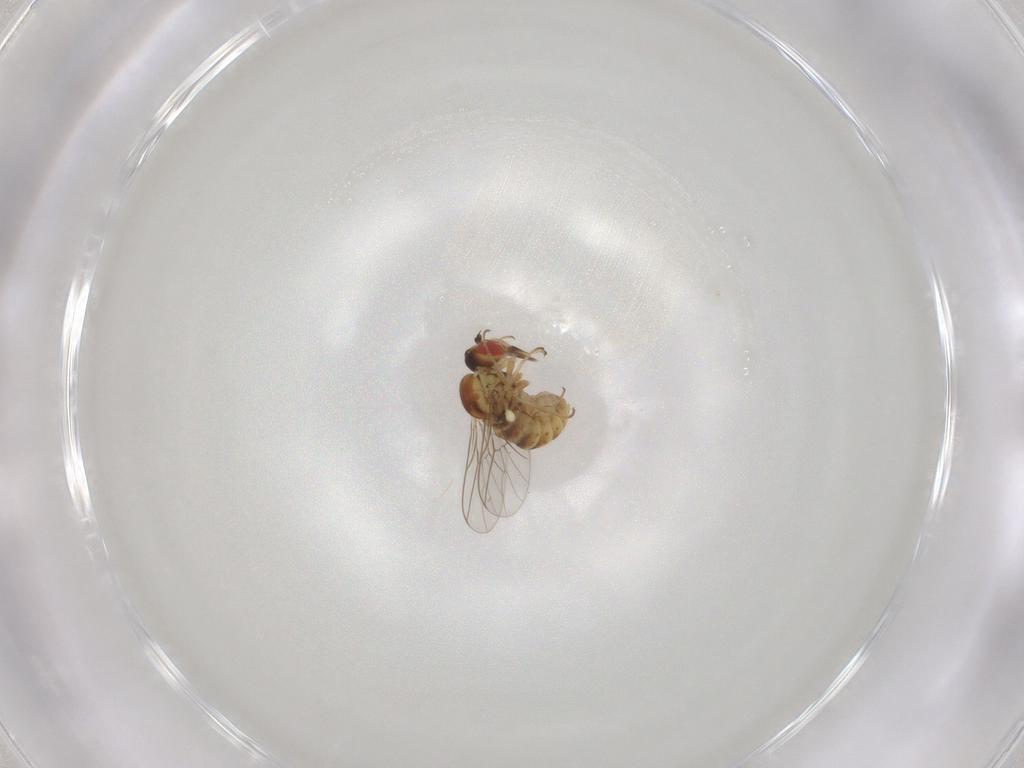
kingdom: Animalia
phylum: Arthropoda
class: Insecta
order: Diptera
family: Mythicomyiidae
